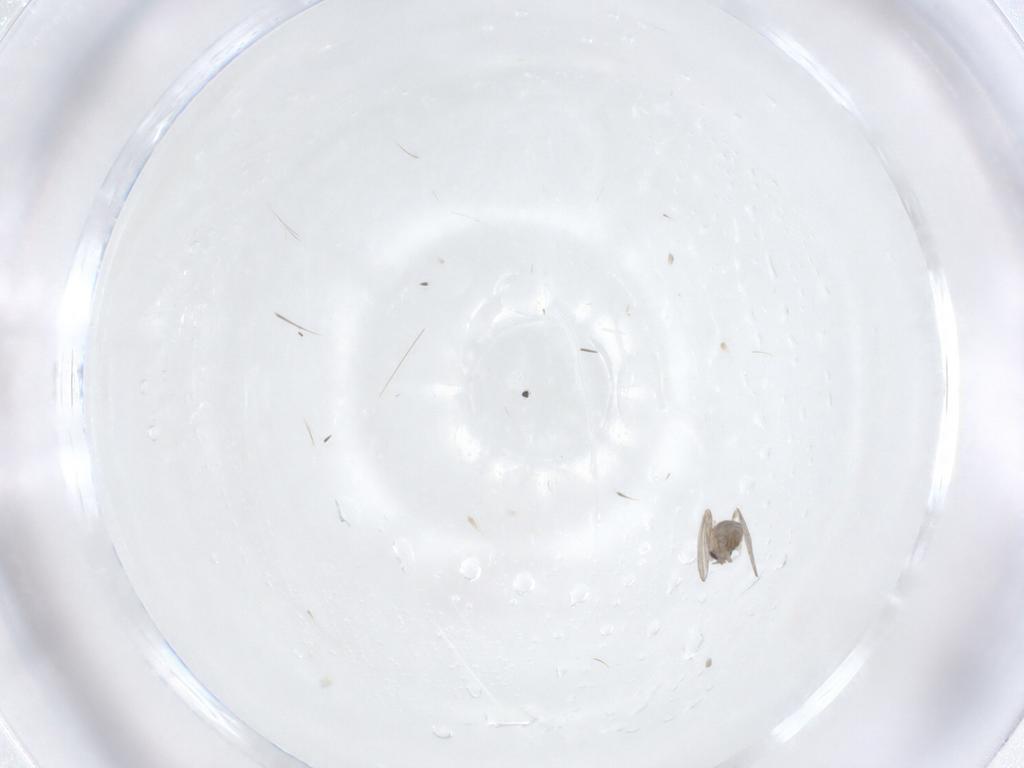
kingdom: Animalia
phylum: Arthropoda
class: Insecta
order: Diptera
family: Psychodidae
